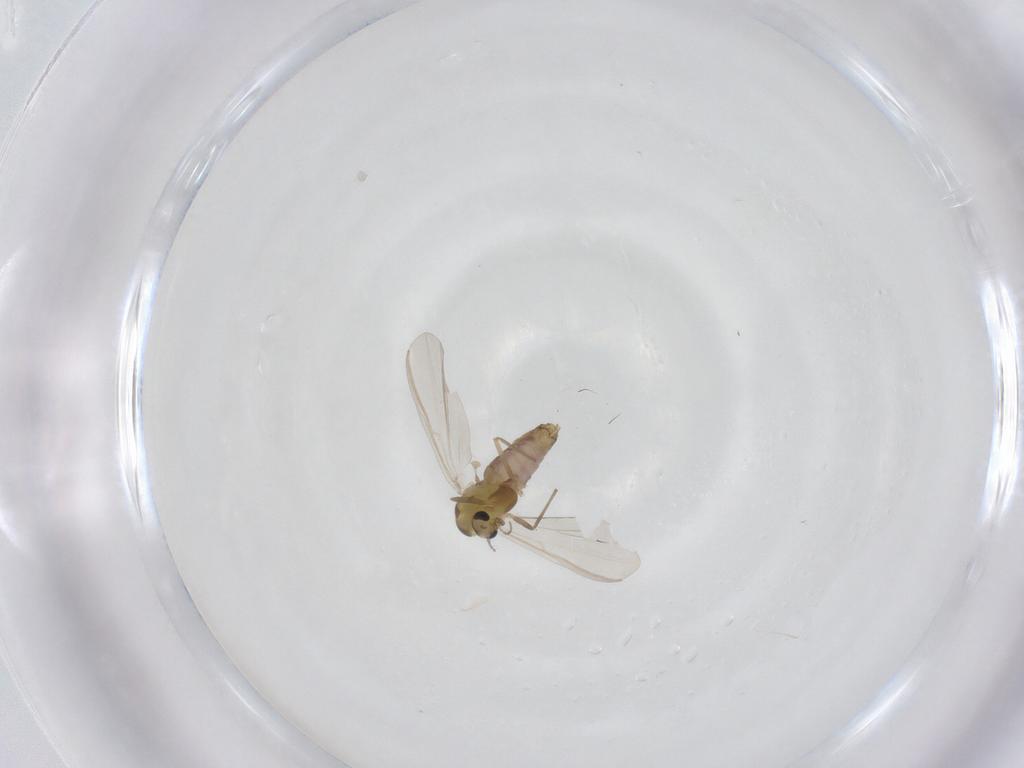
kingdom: Animalia
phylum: Arthropoda
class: Insecta
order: Diptera
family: Chironomidae
